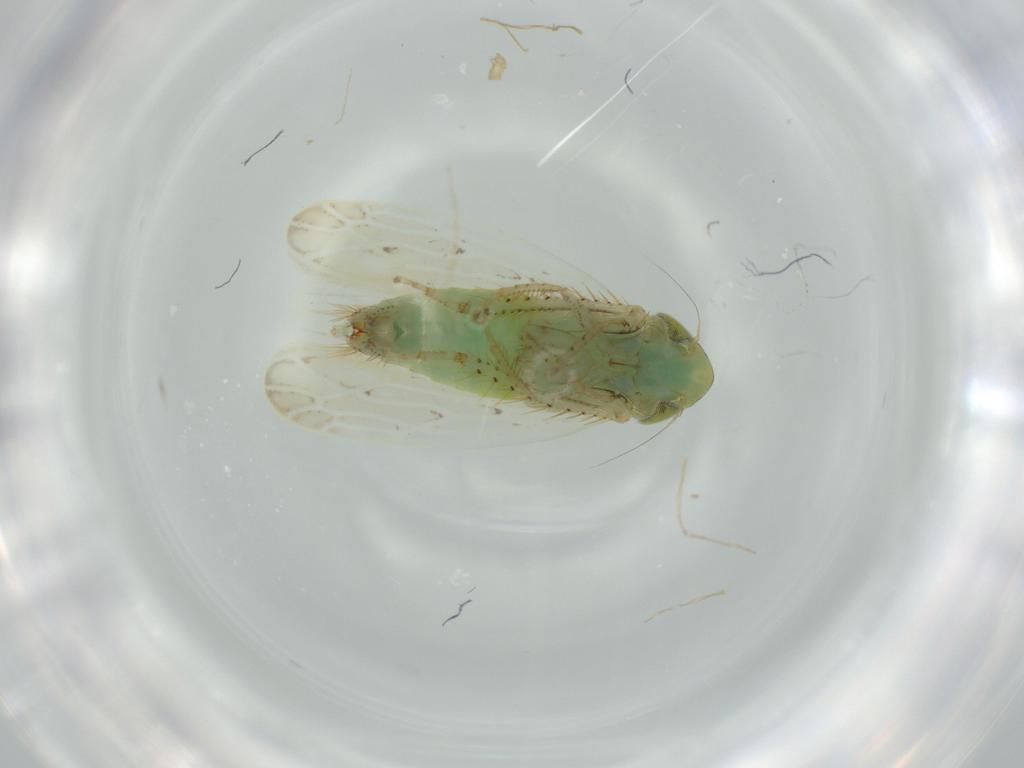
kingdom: Animalia
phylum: Arthropoda
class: Insecta
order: Hemiptera
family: Cicadellidae
